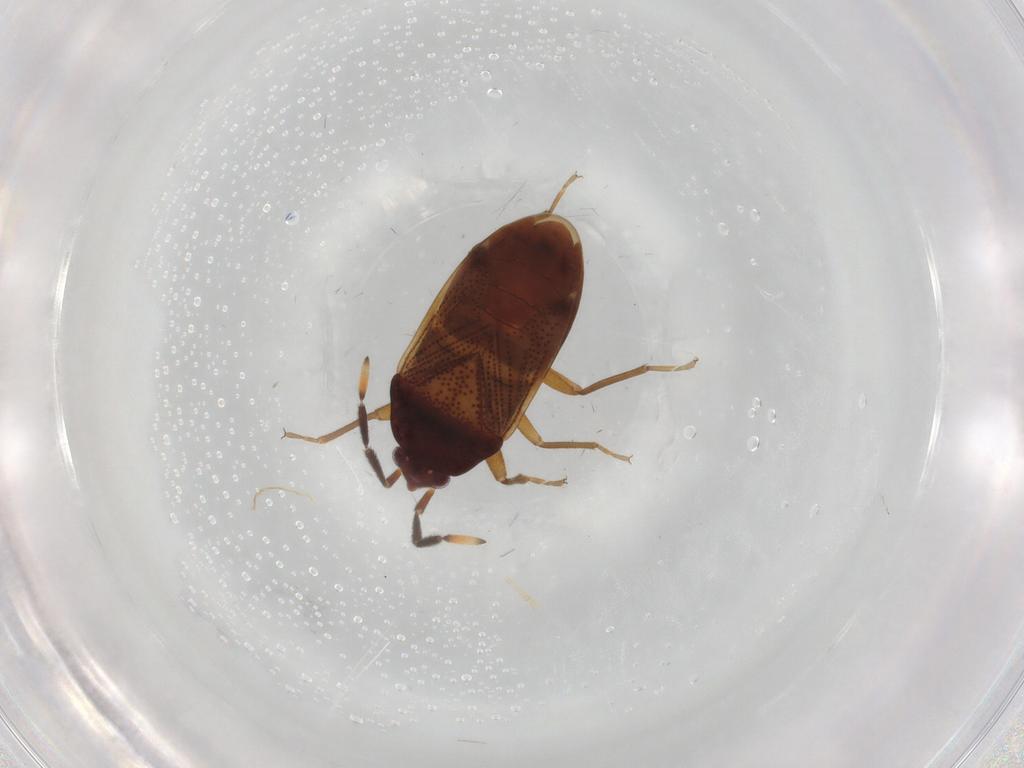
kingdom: Animalia
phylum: Arthropoda
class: Insecta
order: Hemiptera
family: Rhyparochromidae
